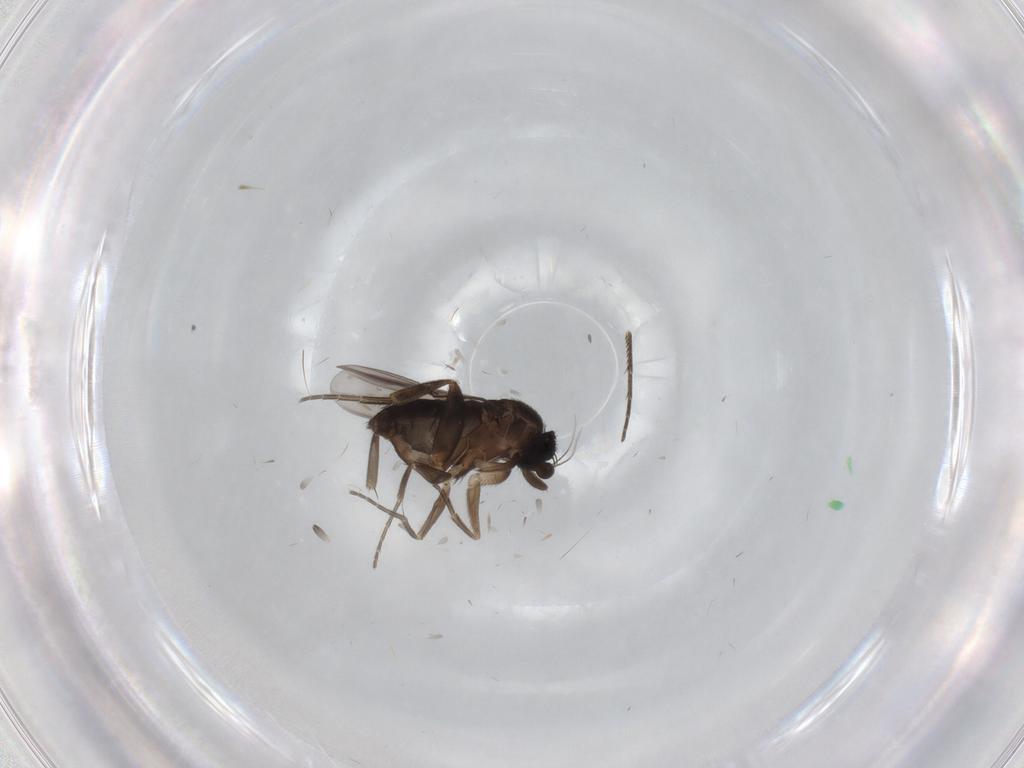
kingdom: Animalia
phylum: Arthropoda
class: Insecta
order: Diptera
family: Phoridae
